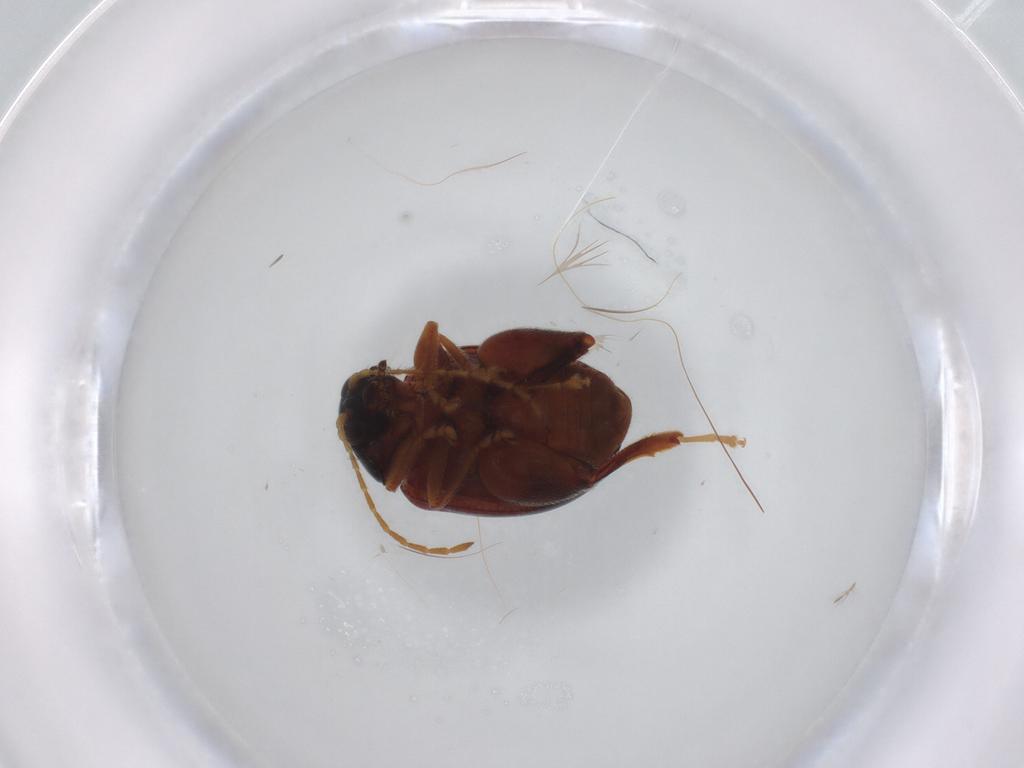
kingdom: Animalia
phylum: Arthropoda
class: Insecta
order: Coleoptera
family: Chrysomelidae
